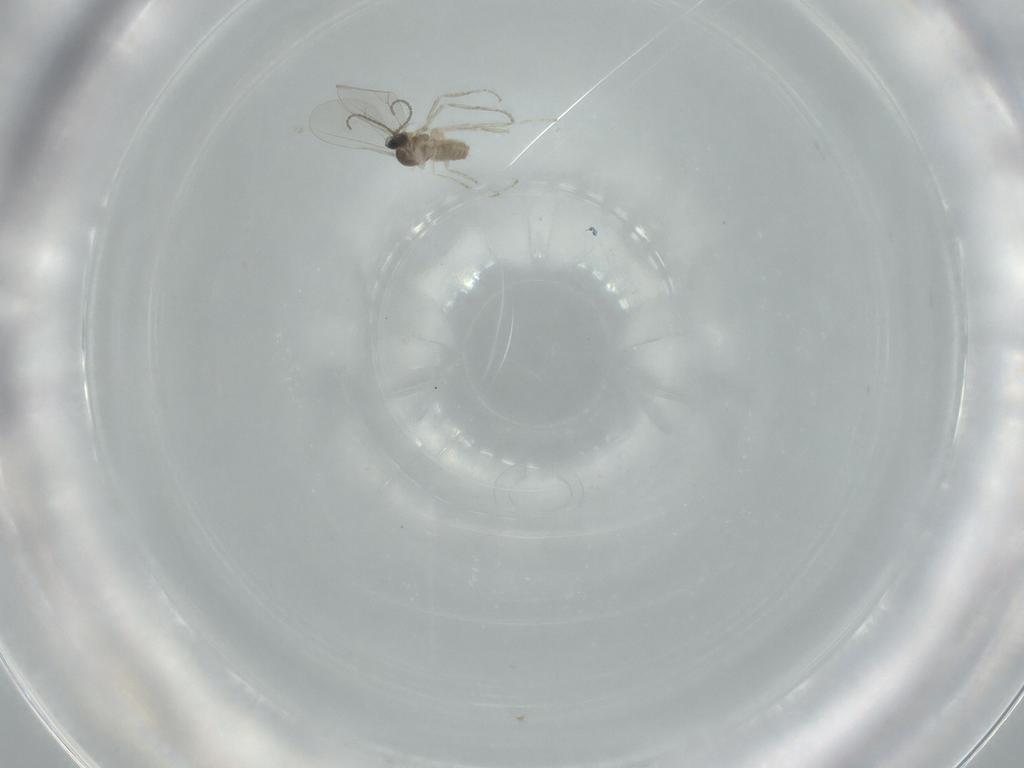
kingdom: Animalia
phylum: Arthropoda
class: Insecta
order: Diptera
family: Cecidomyiidae
